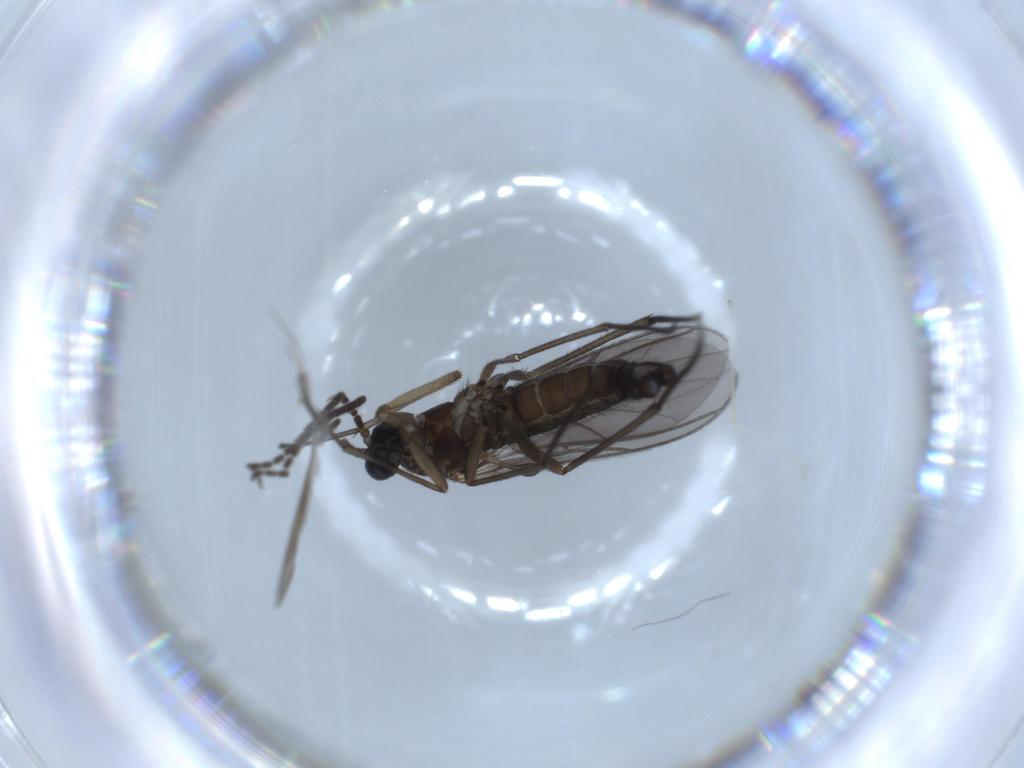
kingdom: Animalia
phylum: Arthropoda
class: Insecta
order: Diptera
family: Sciaridae
